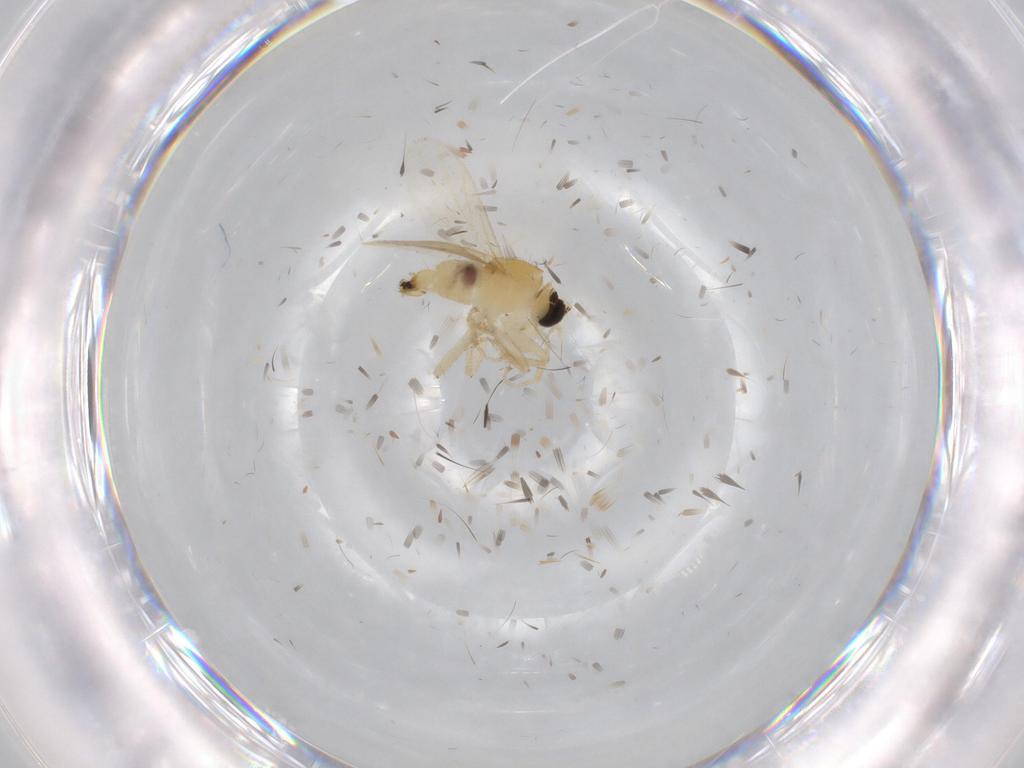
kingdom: Animalia
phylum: Arthropoda
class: Insecta
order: Diptera
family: Hybotidae
